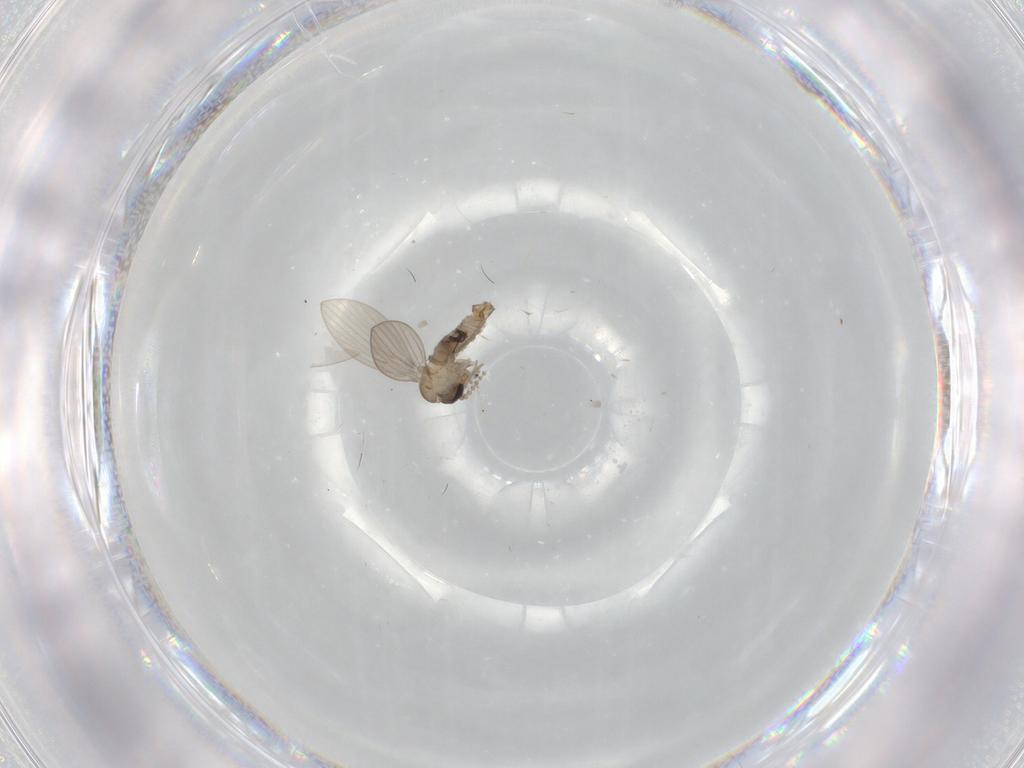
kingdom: Animalia
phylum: Arthropoda
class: Insecta
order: Diptera
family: Psychodidae
